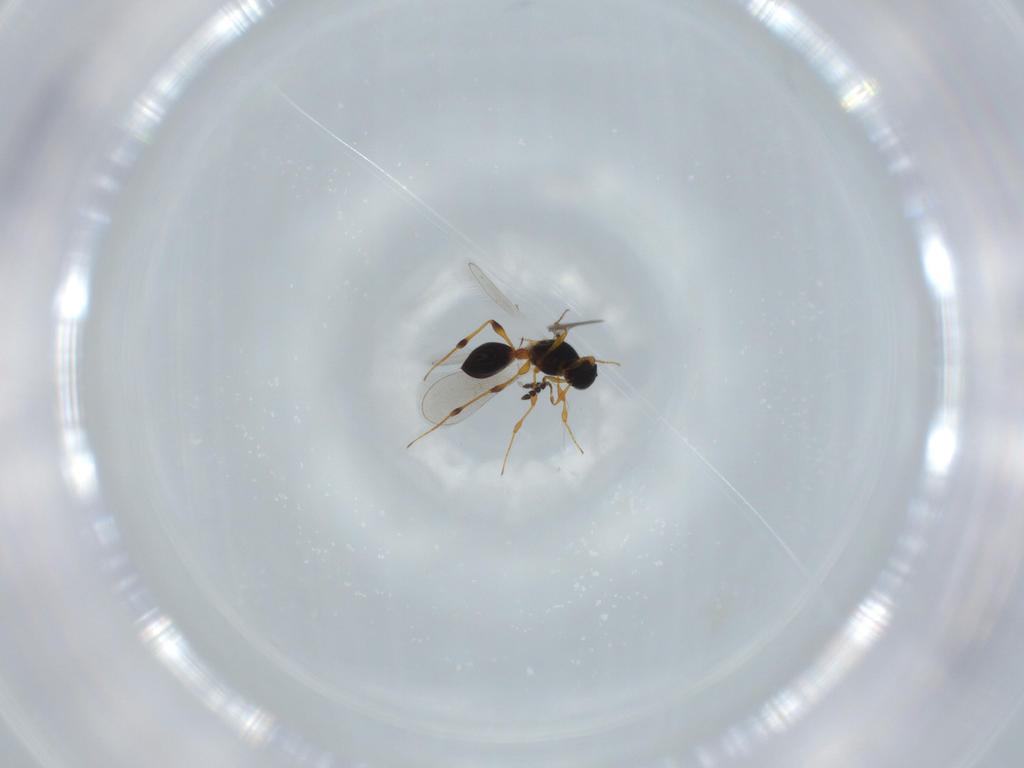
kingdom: Animalia
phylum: Arthropoda
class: Insecta
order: Hymenoptera
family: Platygastridae
